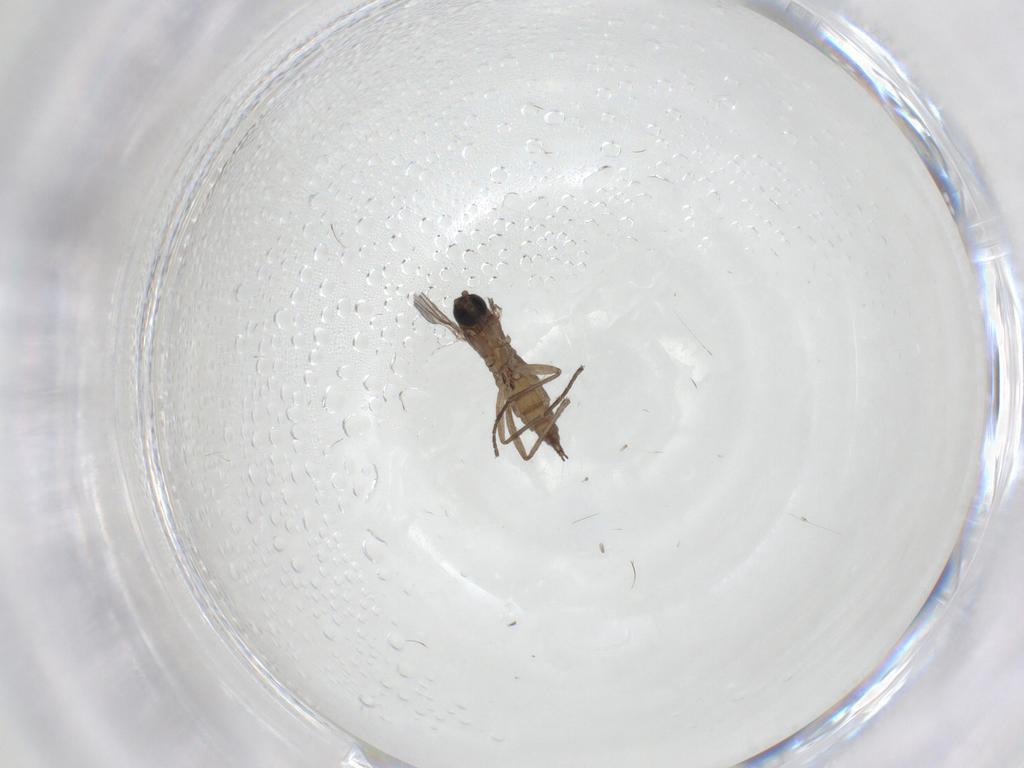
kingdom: Animalia
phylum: Arthropoda
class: Insecta
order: Diptera
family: Sciaridae
